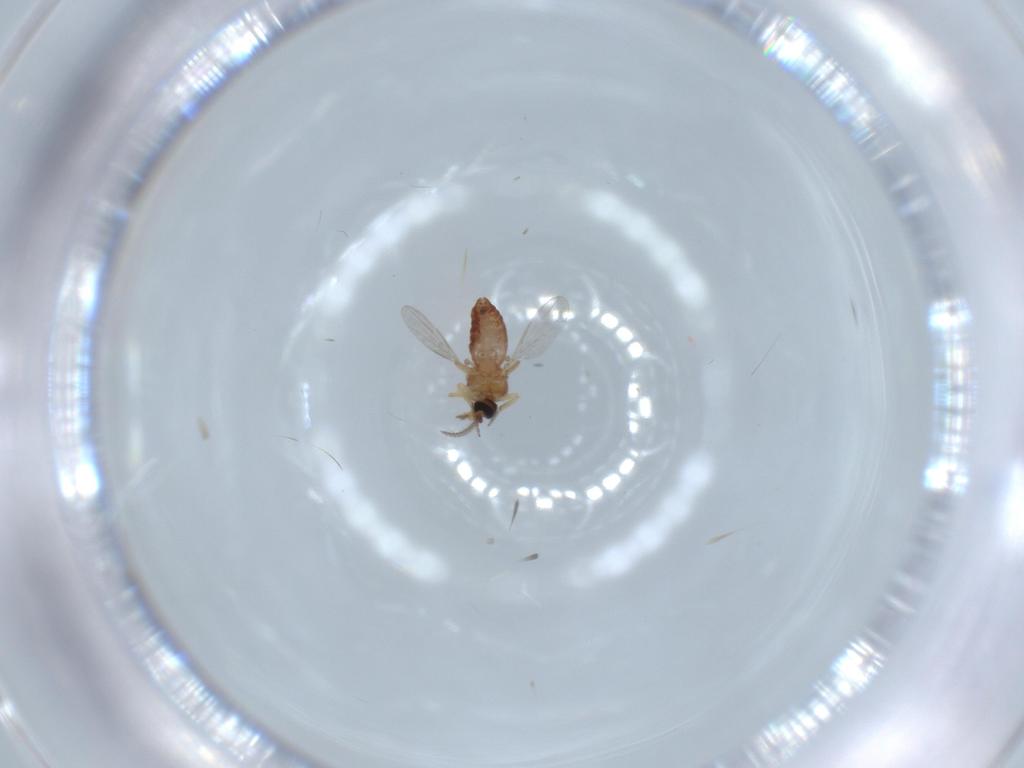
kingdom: Animalia
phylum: Arthropoda
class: Insecta
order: Diptera
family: Ceratopogonidae
